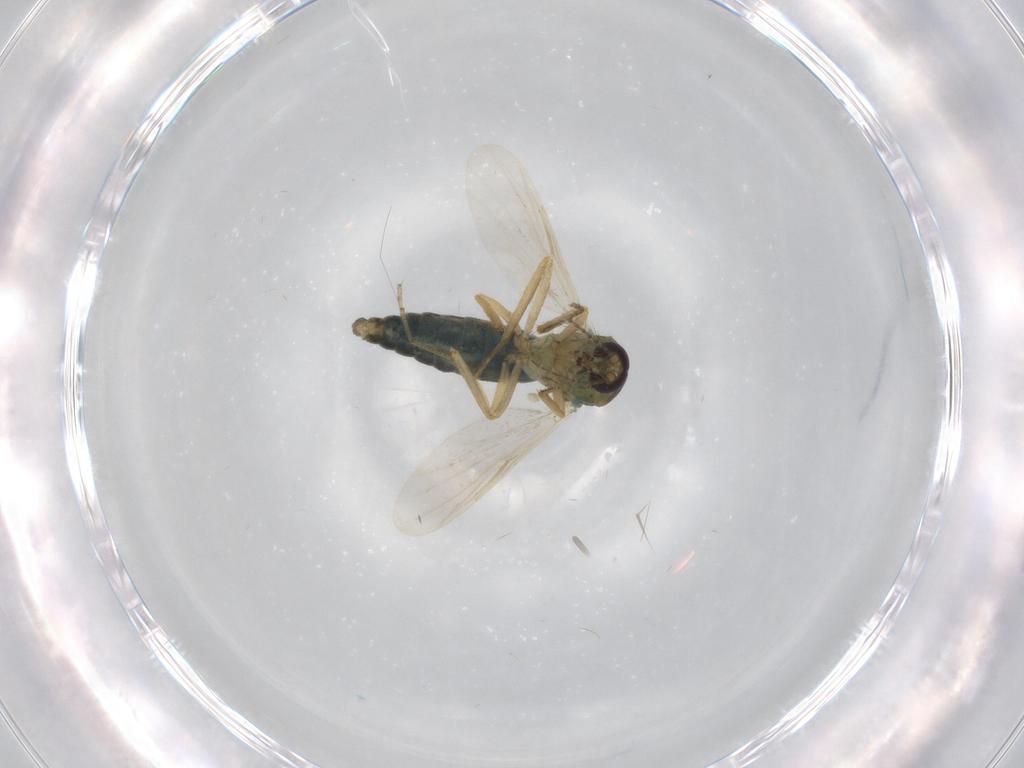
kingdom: Animalia
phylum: Arthropoda
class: Insecta
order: Diptera
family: Ceratopogonidae
